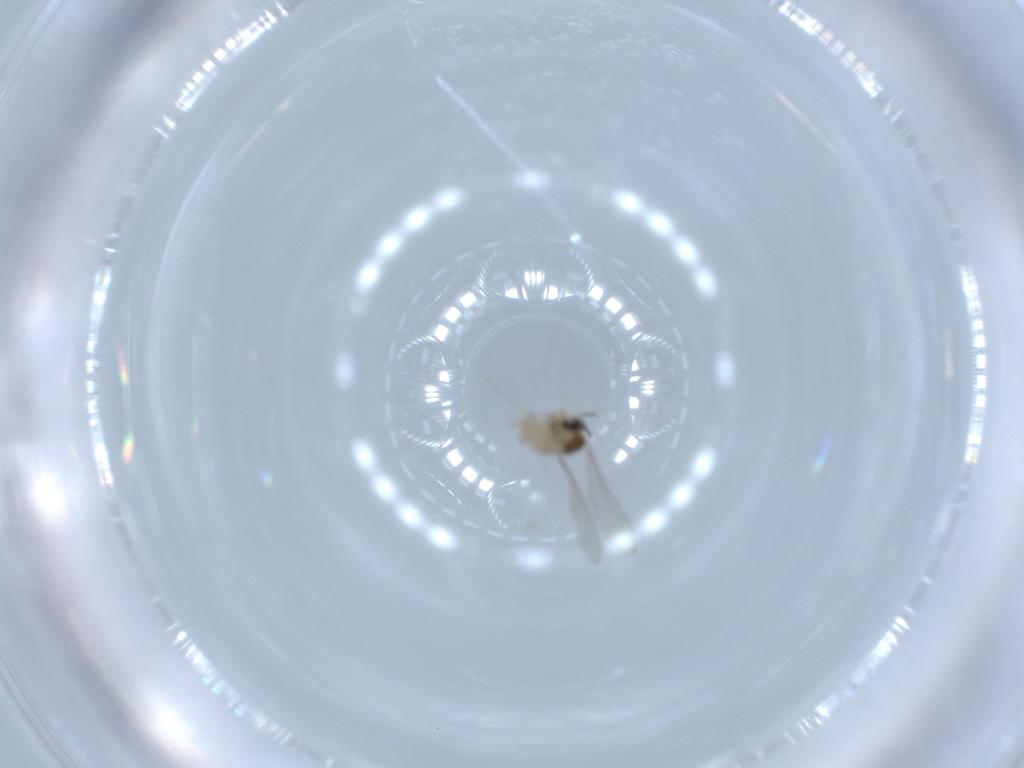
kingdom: Animalia
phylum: Arthropoda
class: Insecta
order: Diptera
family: Cecidomyiidae
